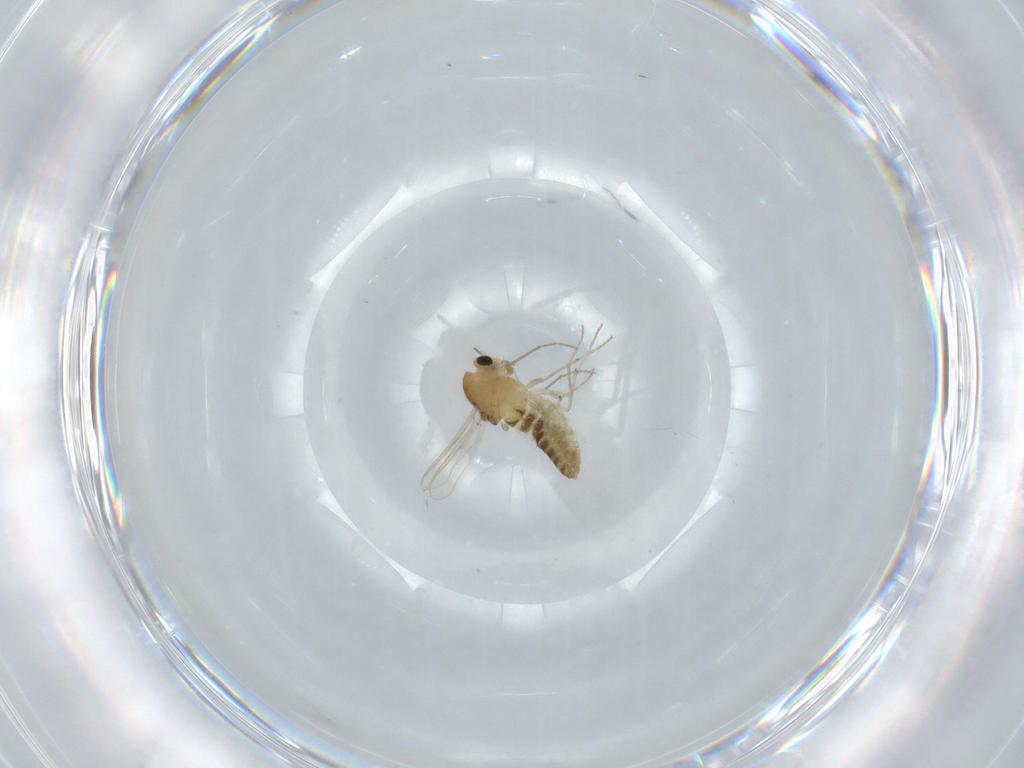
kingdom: Animalia
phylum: Arthropoda
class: Insecta
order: Diptera
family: Chironomidae
